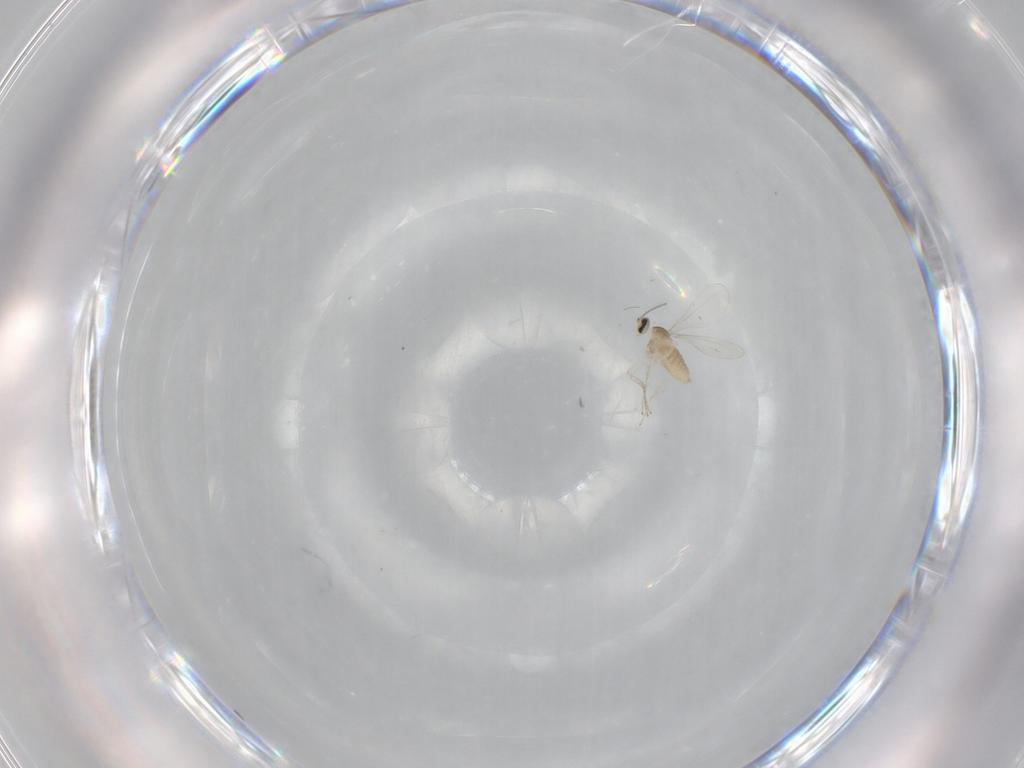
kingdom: Animalia
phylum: Arthropoda
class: Insecta
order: Diptera
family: Cecidomyiidae
